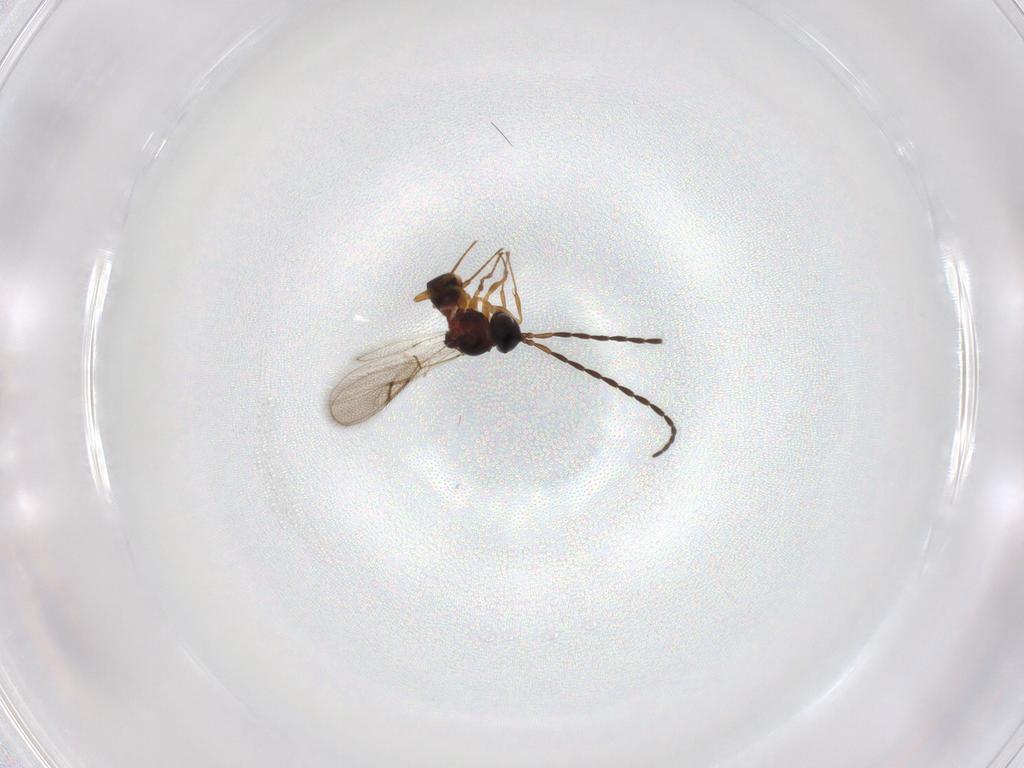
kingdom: Animalia
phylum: Arthropoda
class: Insecta
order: Hymenoptera
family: Figitidae
